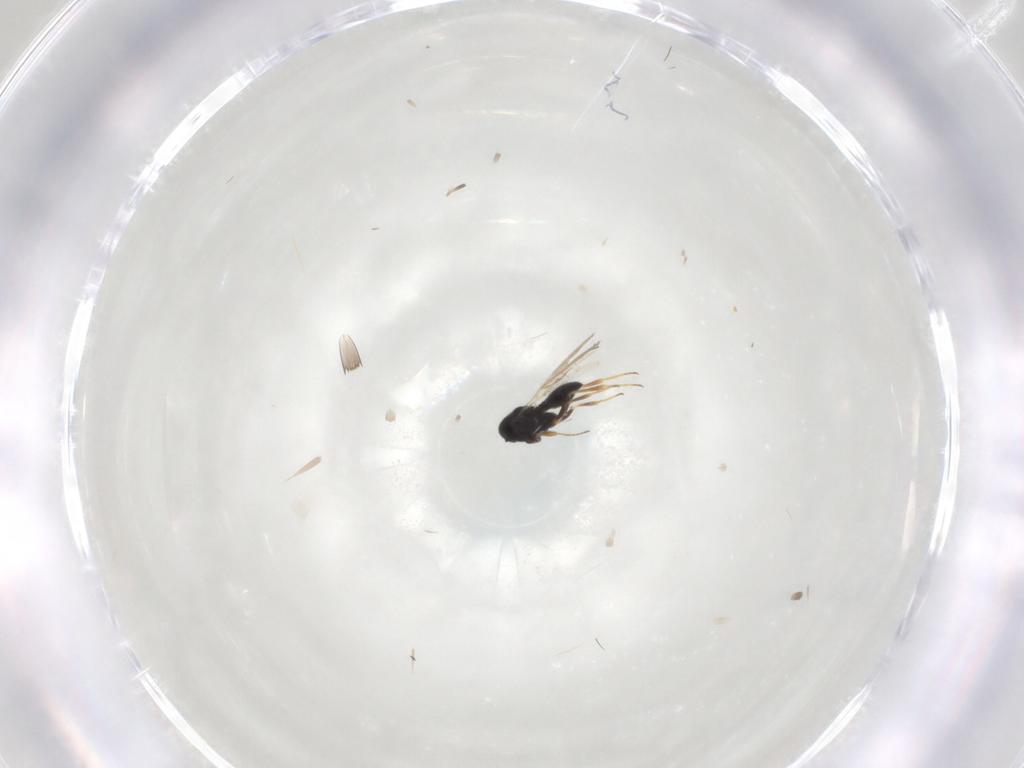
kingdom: Animalia
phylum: Arthropoda
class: Insecta
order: Hymenoptera
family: Scelionidae
